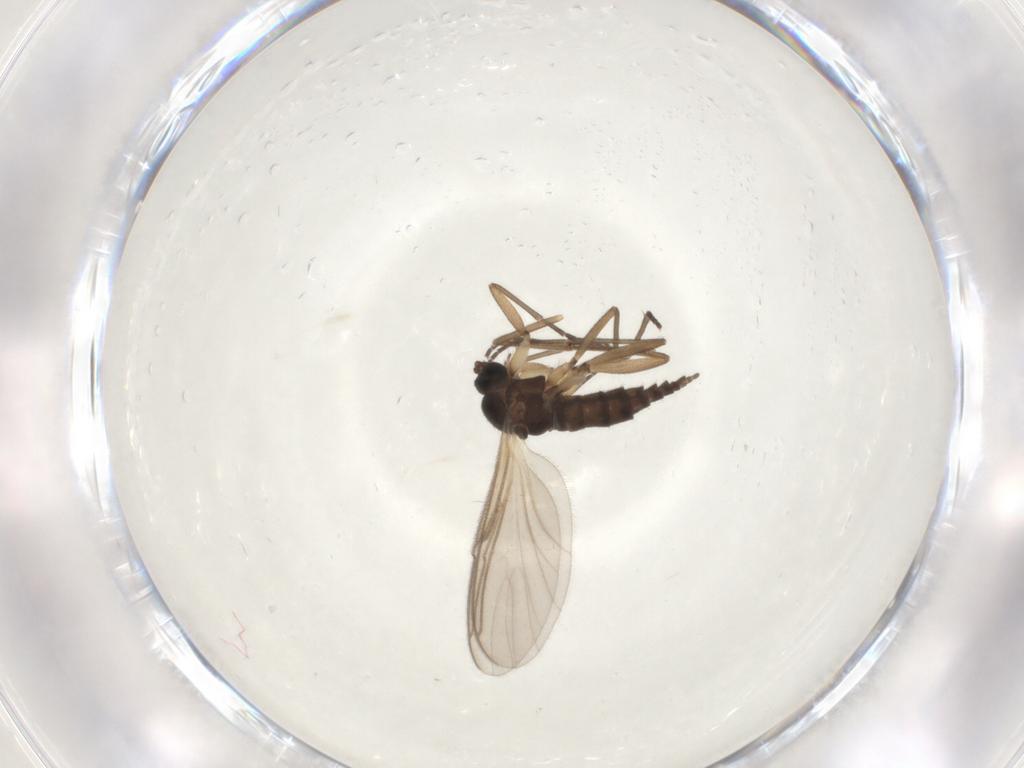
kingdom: Animalia
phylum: Arthropoda
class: Insecta
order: Diptera
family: Sciaridae
